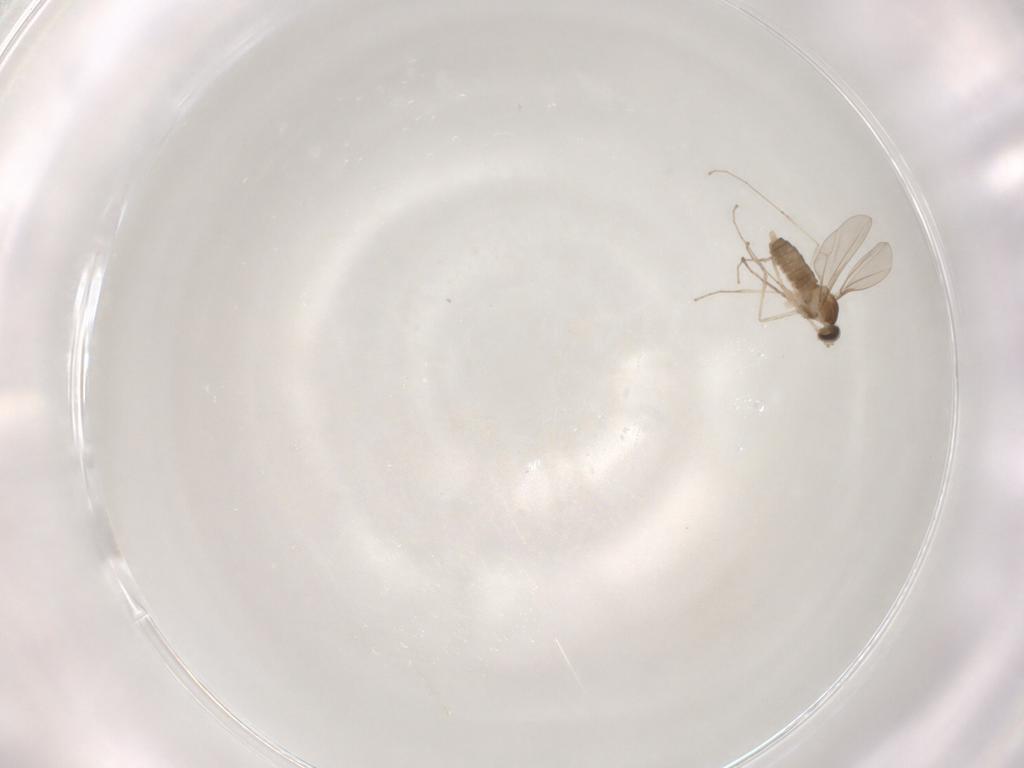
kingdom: Animalia
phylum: Arthropoda
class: Insecta
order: Diptera
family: Cecidomyiidae
